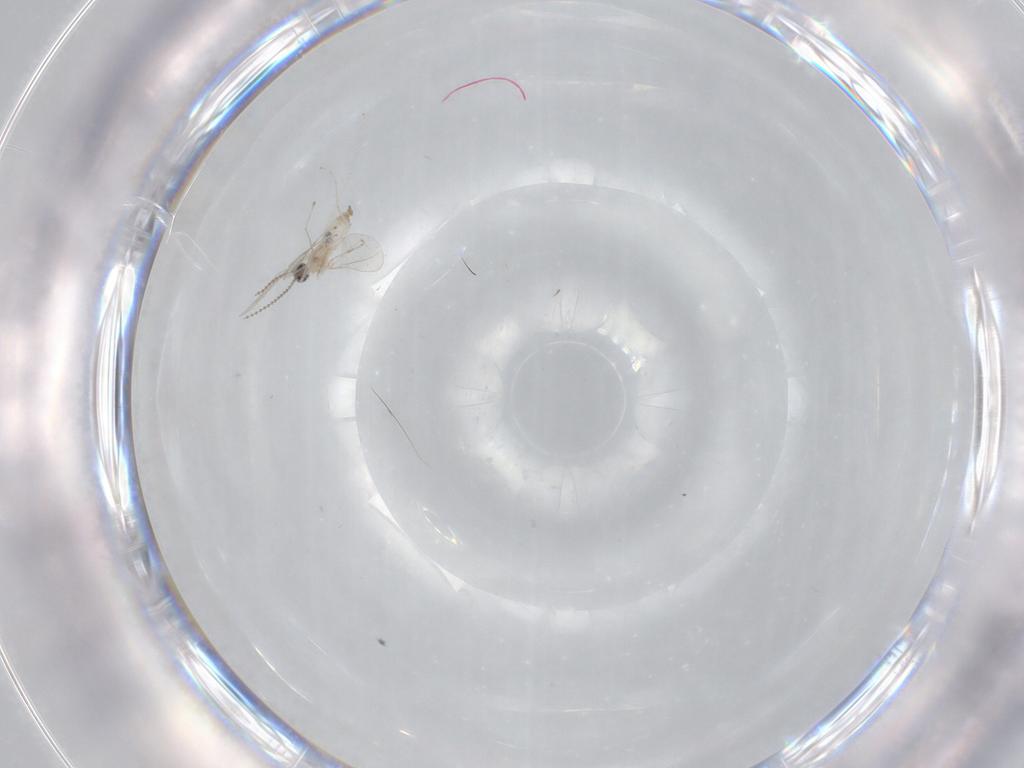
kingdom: Animalia
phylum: Arthropoda
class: Insecta
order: Diptera
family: Cecidomyiidae
